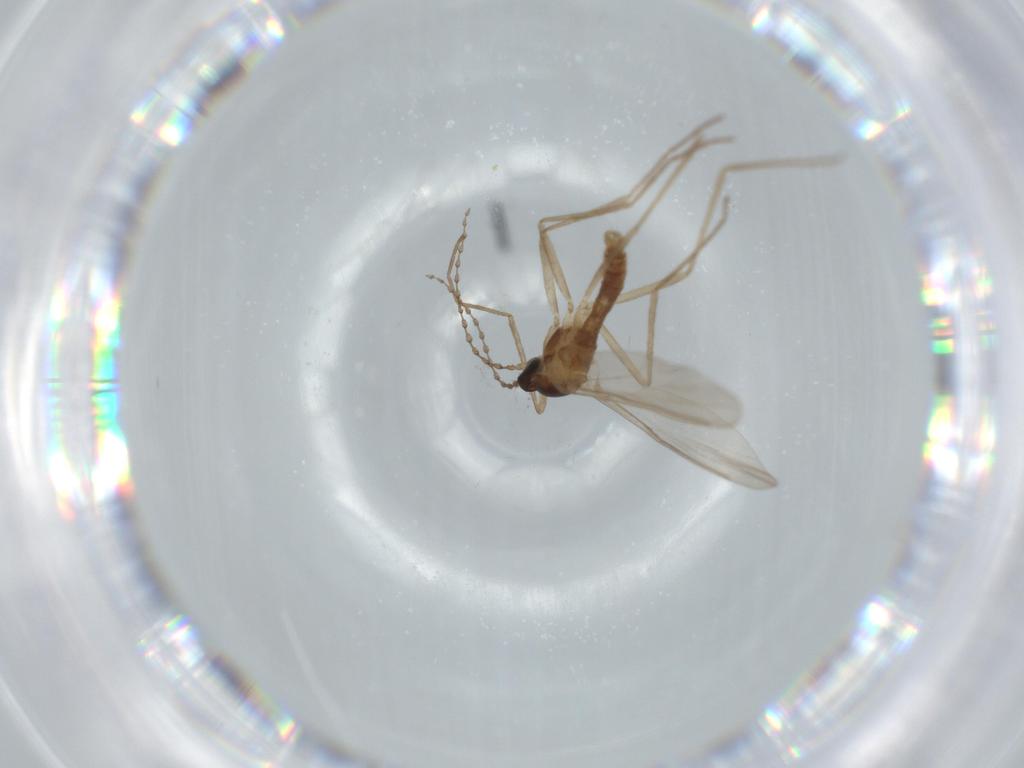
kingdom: Animalia
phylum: Arthropoda
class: Insecta
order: Diptera
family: Cecidomyiidae
